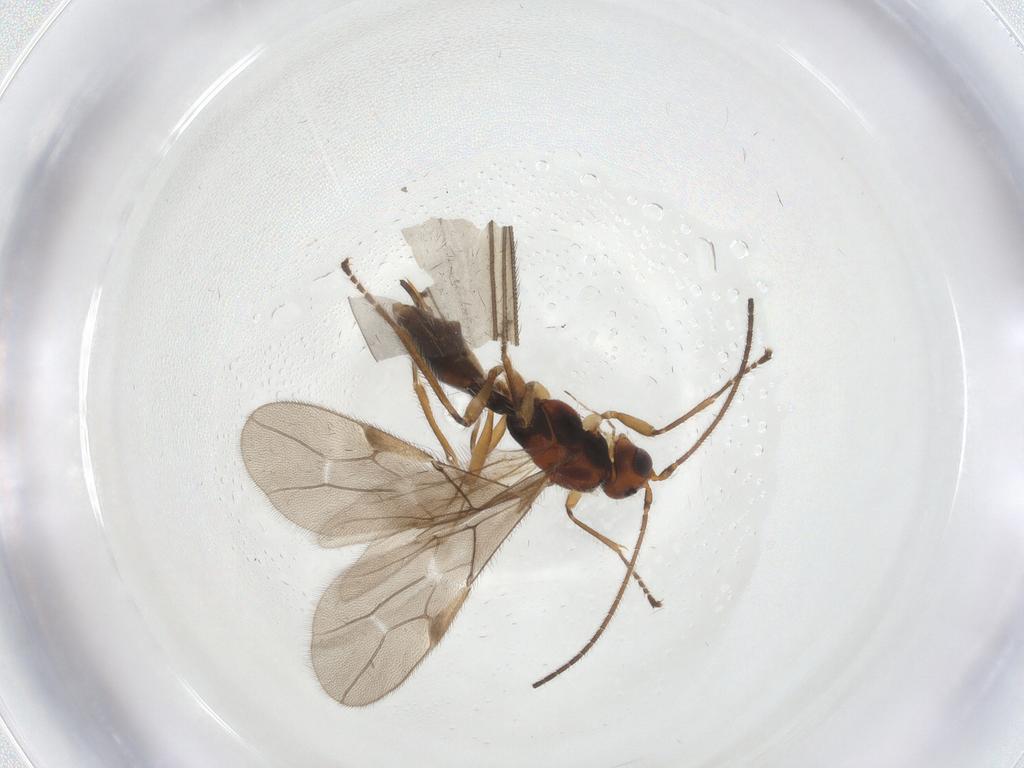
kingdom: Animalia
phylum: Arthropoda
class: Insecta
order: Hymenoptera
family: Braconidae
